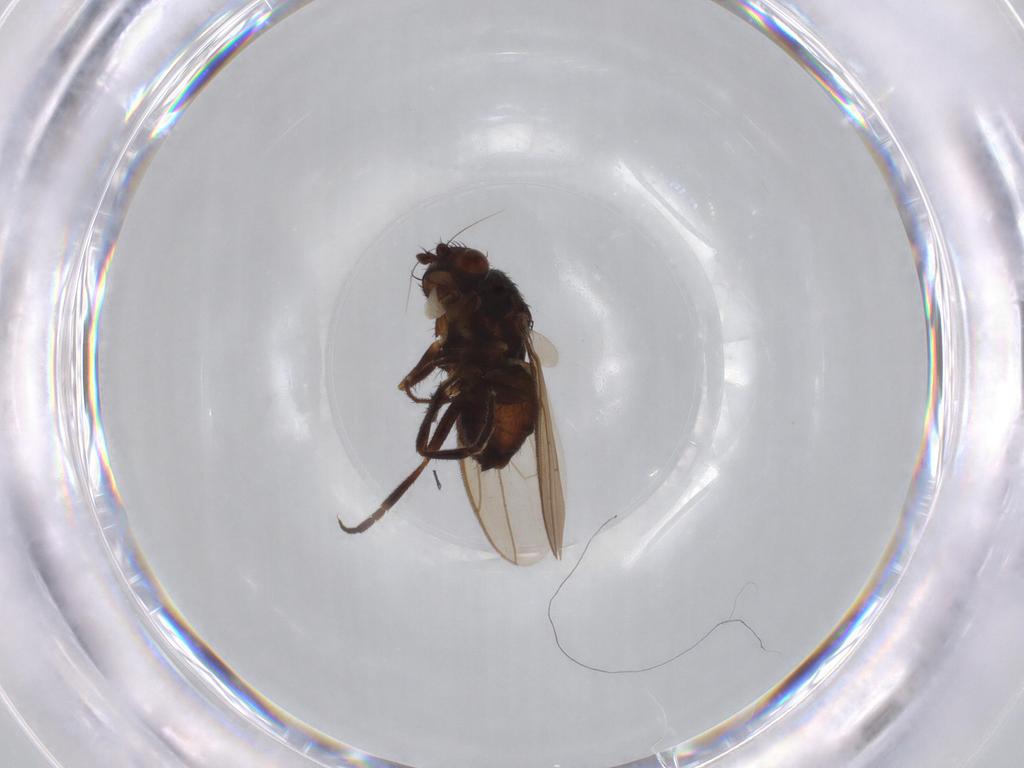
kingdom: Animalia
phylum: Arthropoda
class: Insecta
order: Diptera
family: Sphaeroceridae
